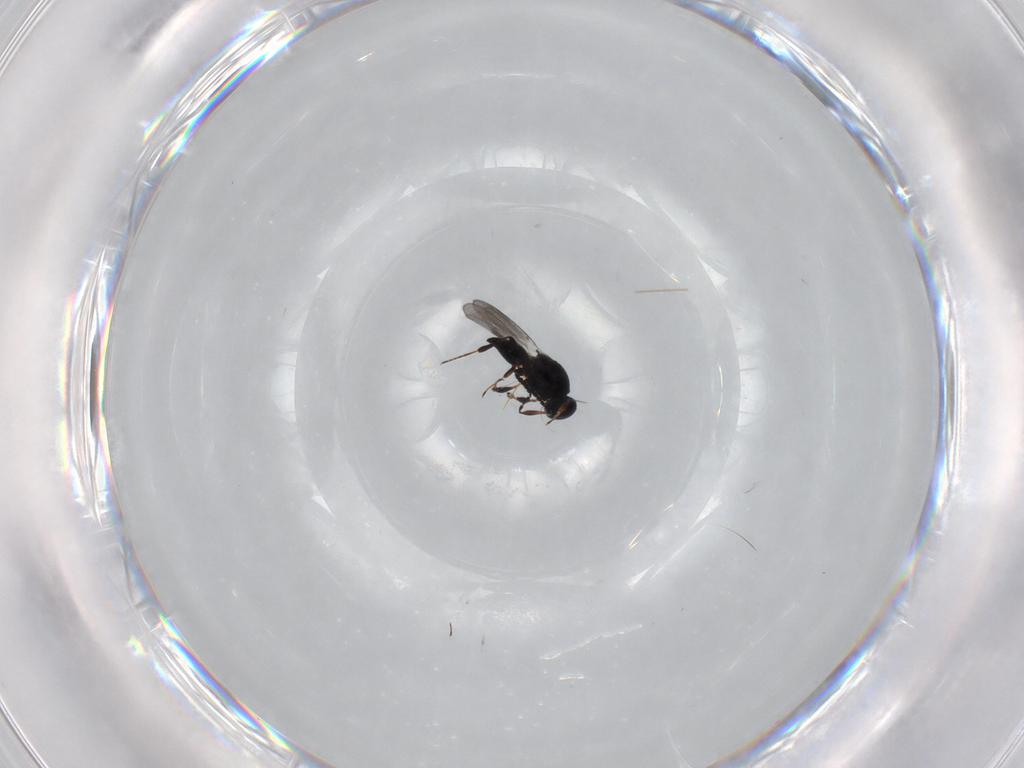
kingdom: Animalia
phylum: Arthropoda
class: Insecta
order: Hymenoptera
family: Platygastridae
